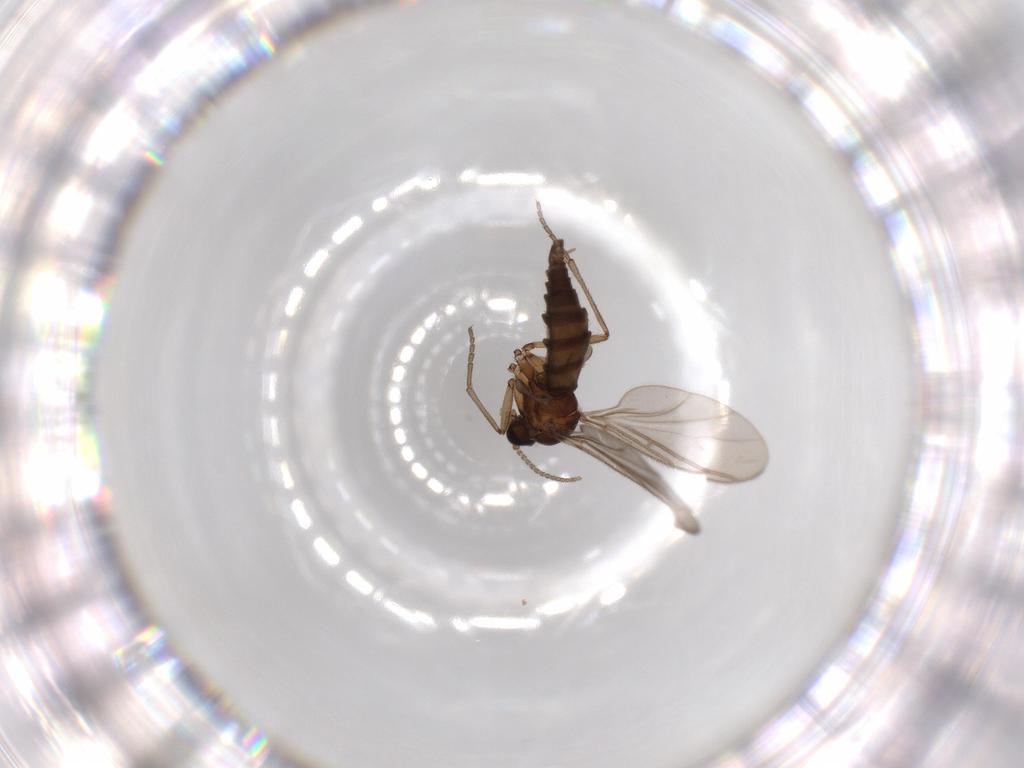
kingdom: Animalia
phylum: Arthropoda
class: Insecta
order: Diptera
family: Sciaridae
